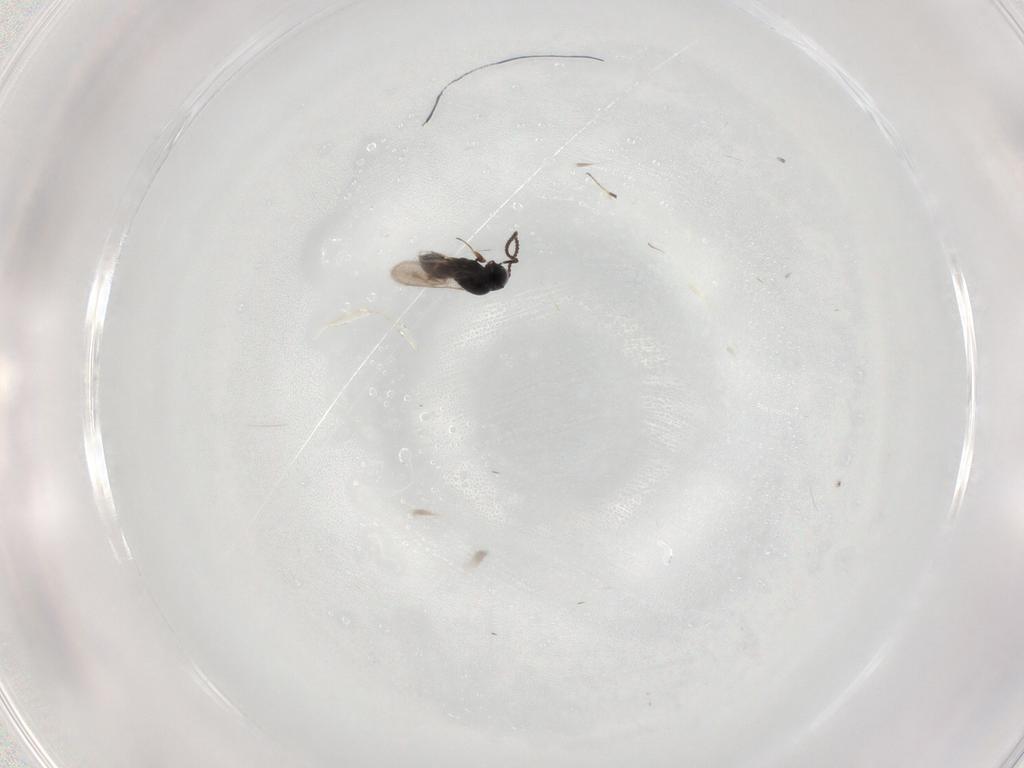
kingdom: Animalia
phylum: Arthropoda
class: Insecta
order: Hymenoptera
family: Scelionidae
